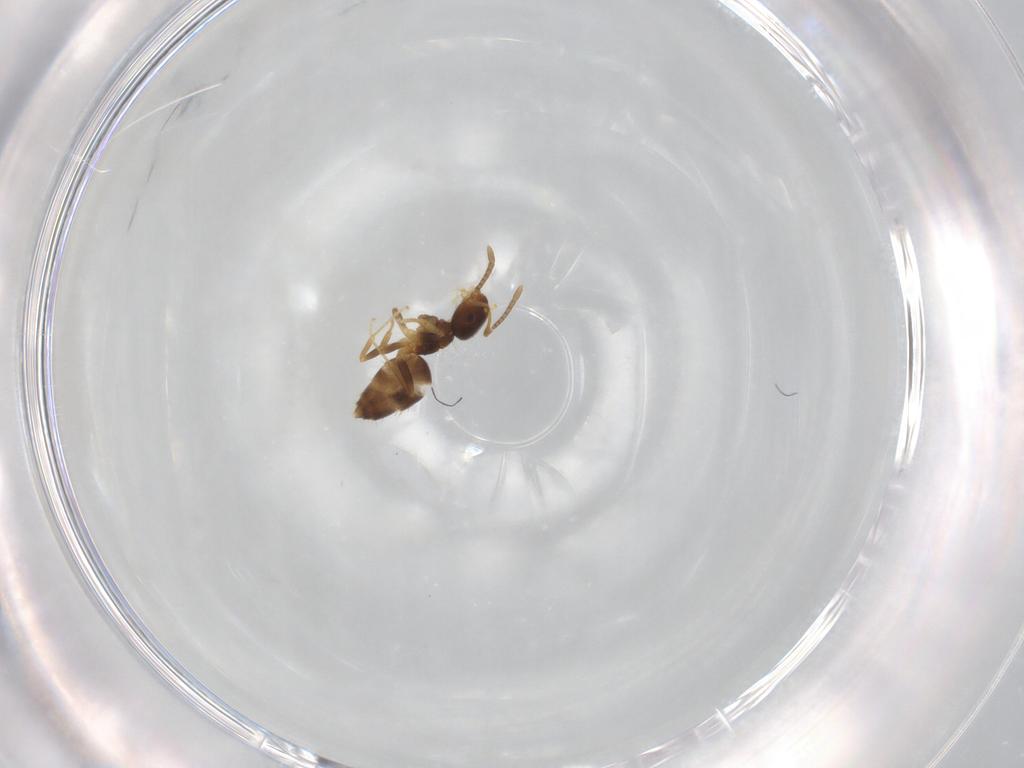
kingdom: Animalia
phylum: Arthropoda
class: Insecta
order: Hymenoptera
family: Formicidae
